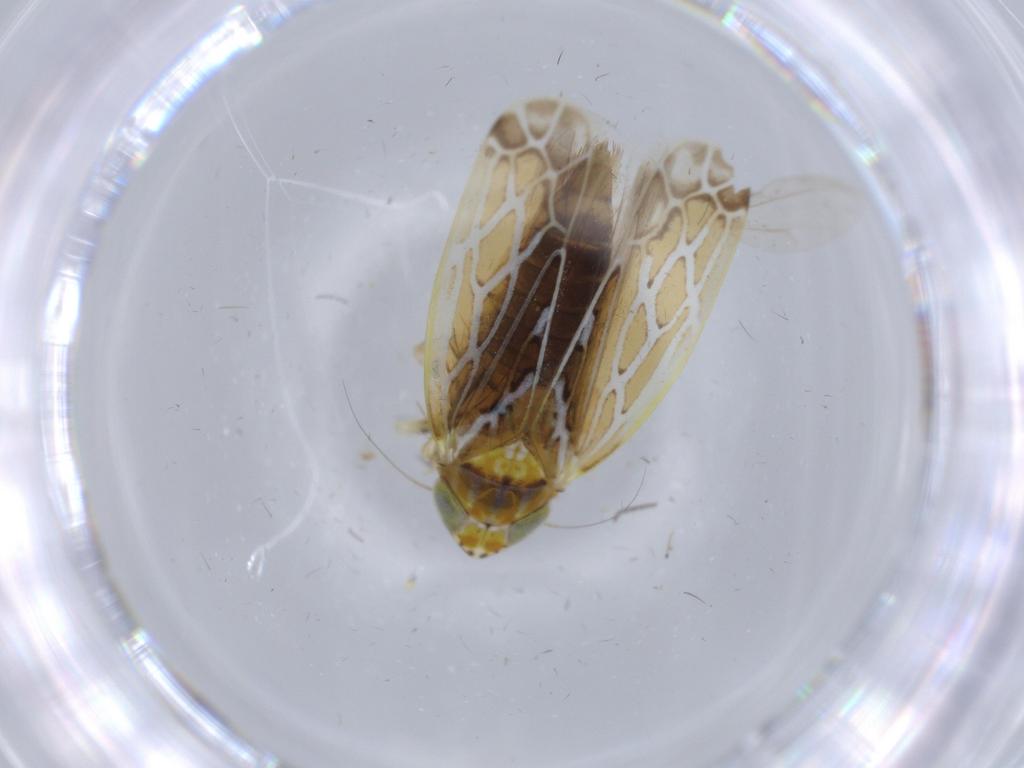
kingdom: Animalia
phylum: Arthropoda
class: Insecta
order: Hemiptera
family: Cicadellidae
